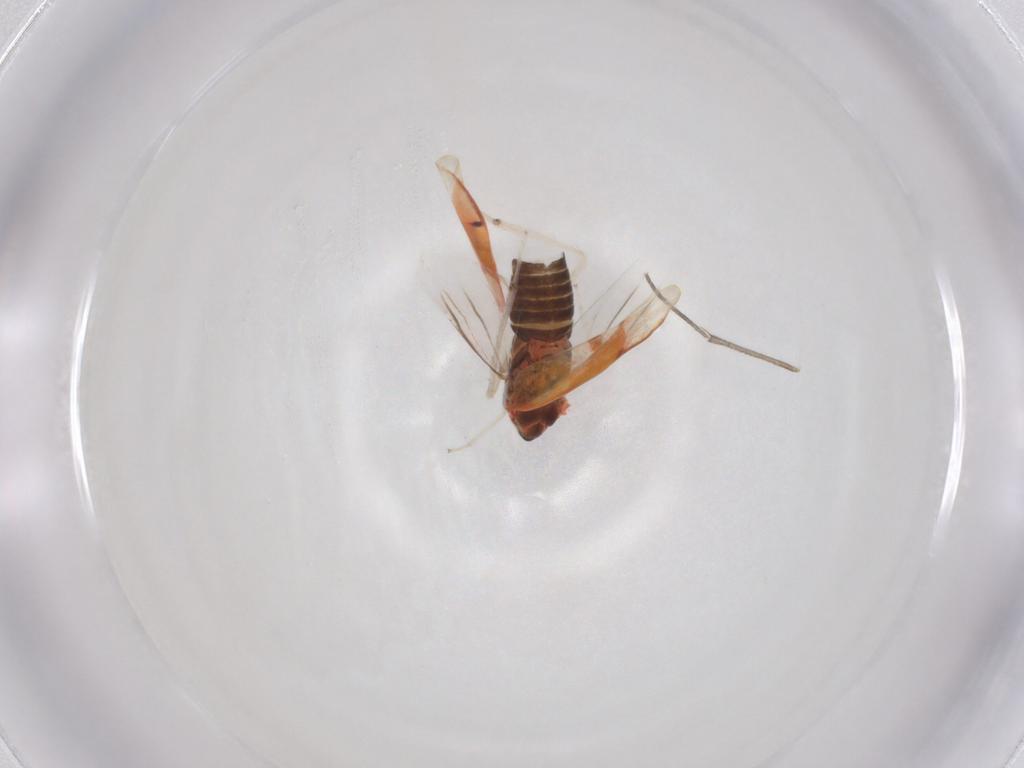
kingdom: Animalia
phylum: Arthropoda
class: Insecta
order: Hemiptera
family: Cicadellidae
